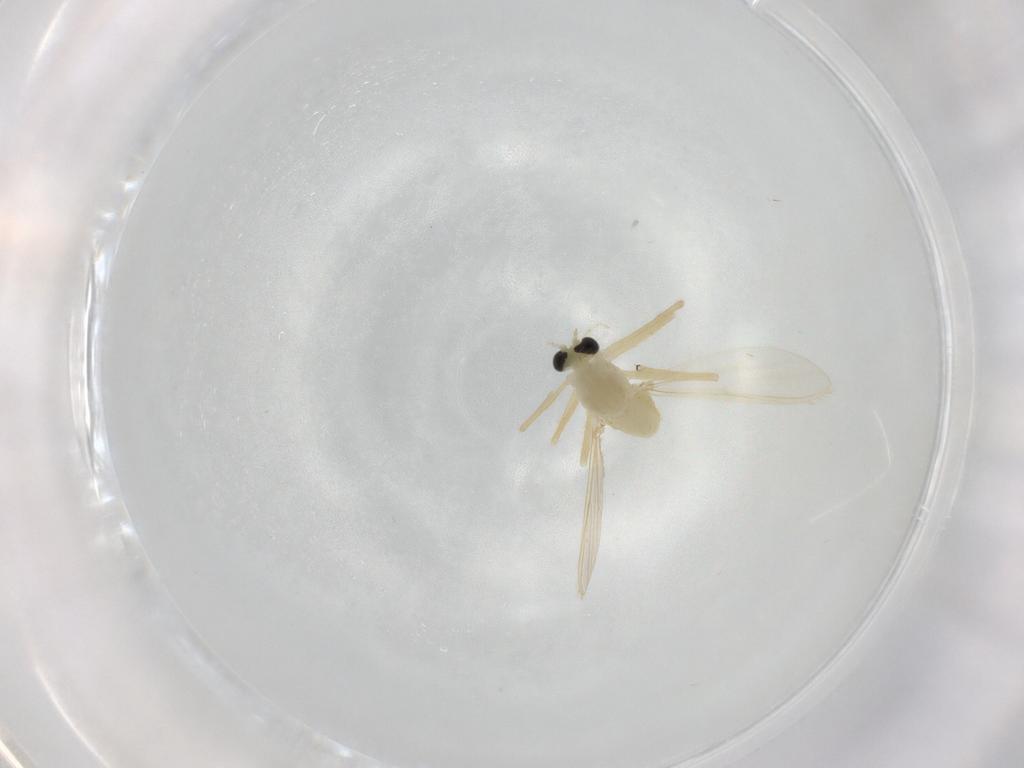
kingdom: Animalia
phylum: Arthropoda
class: Insecta
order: Diptera
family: Chironomidae
